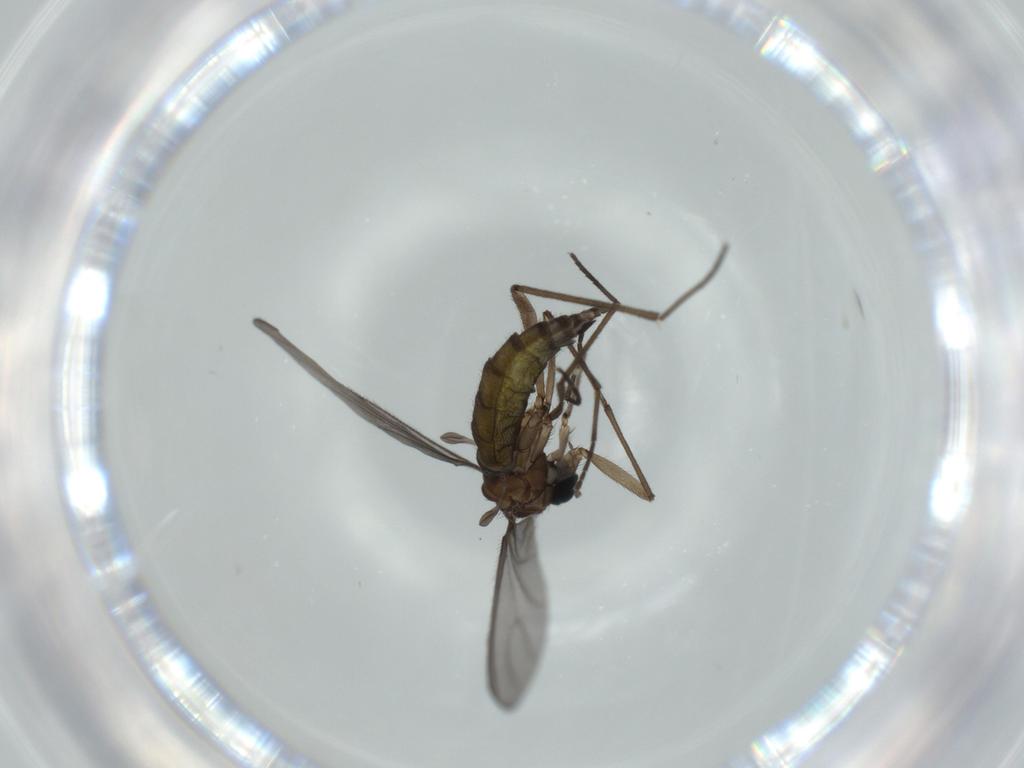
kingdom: Animalia
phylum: Arthropoda
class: Insecta
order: Diptera
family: Sciaridae
